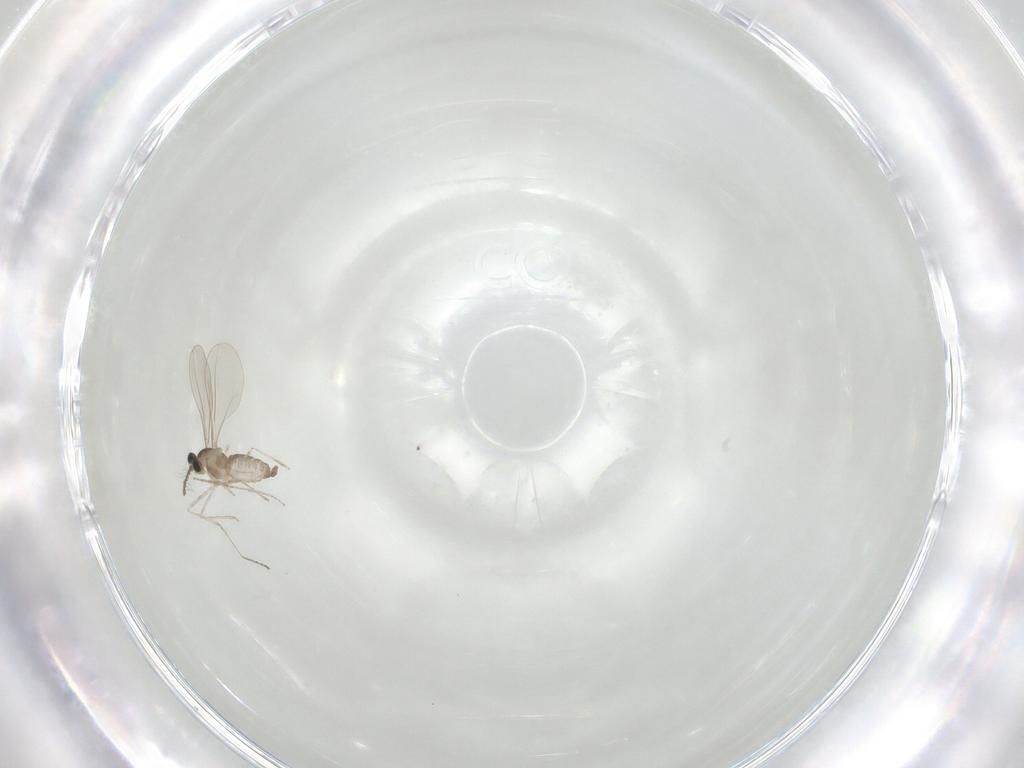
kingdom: Animalia
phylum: Arthropoda
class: Insecta
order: Diptera
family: Cecidomyiidae
